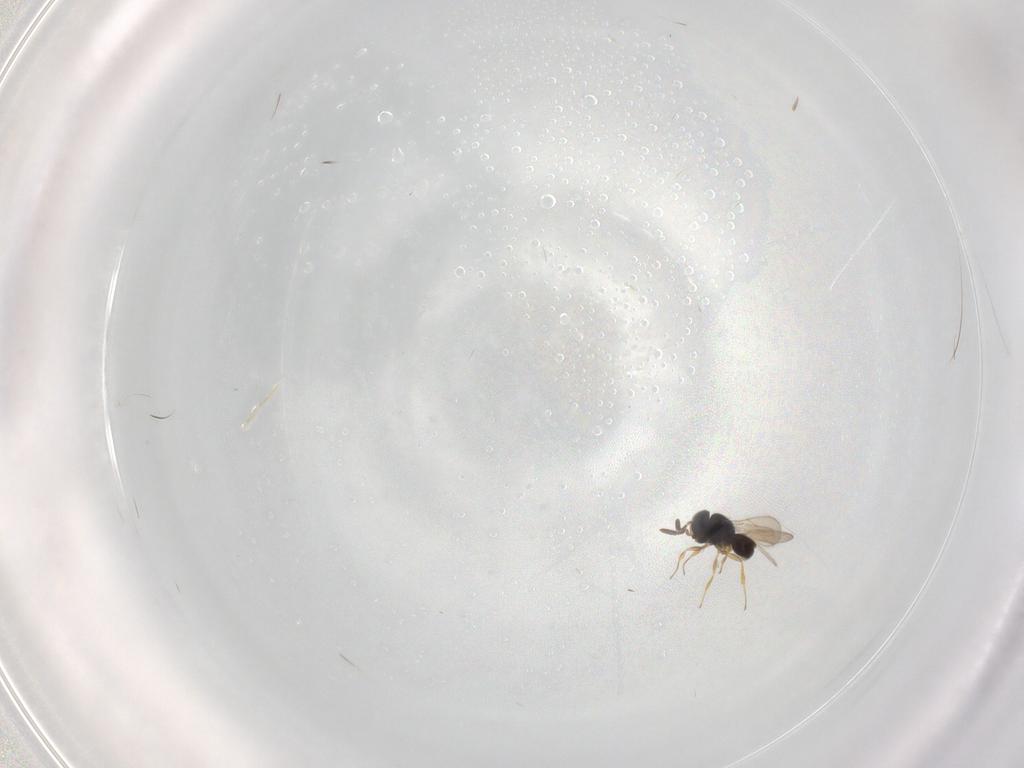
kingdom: Animalia
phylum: Arthropoda
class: Insecta
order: Hymenoptera
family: Scelionidae
